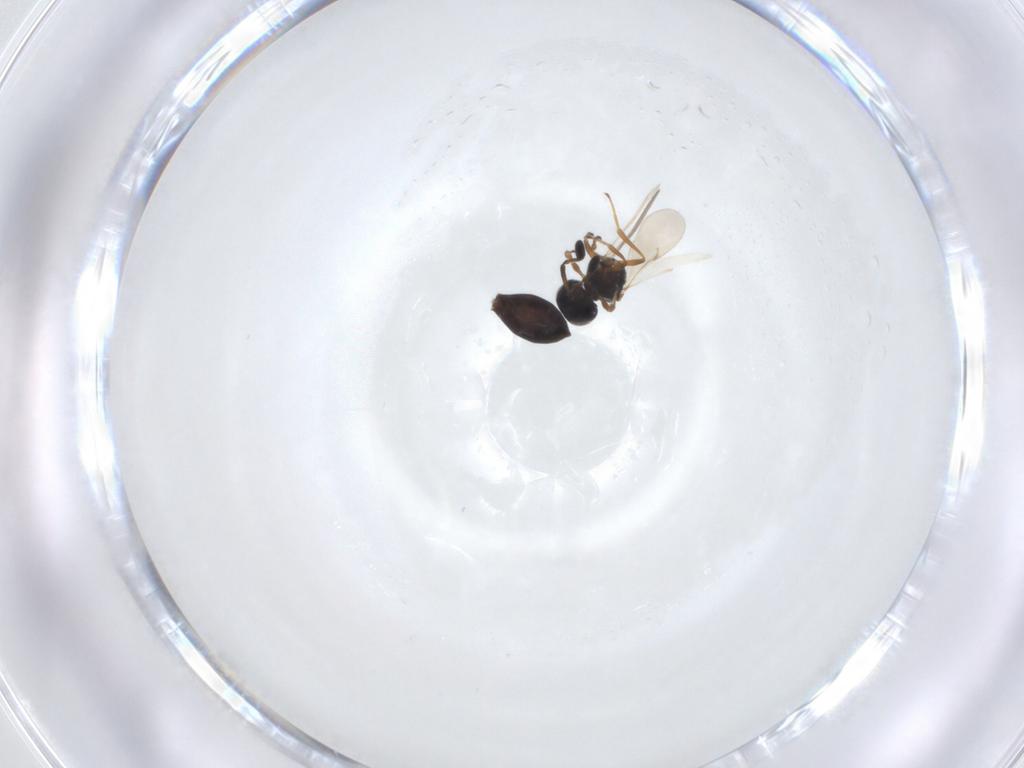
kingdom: Animalia
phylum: Arthropoda
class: Insecta
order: Hymenoptera
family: Scelionidae
